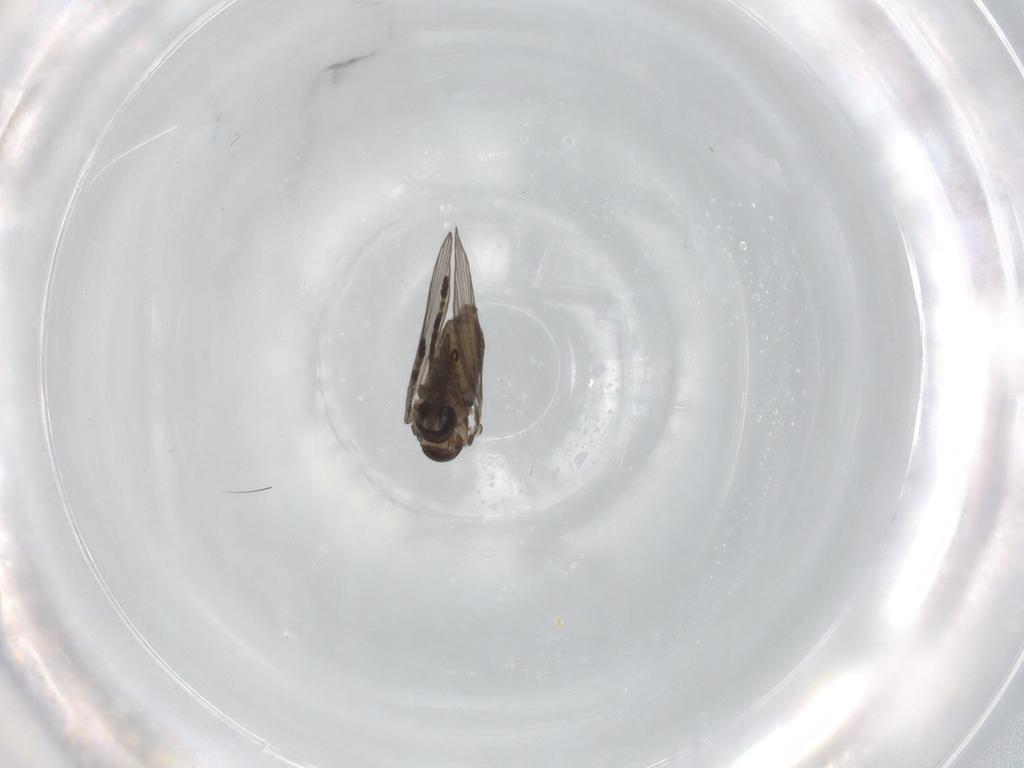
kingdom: Animalia
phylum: Arthropoda
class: Insecta
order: Diptera
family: Psychodidae
